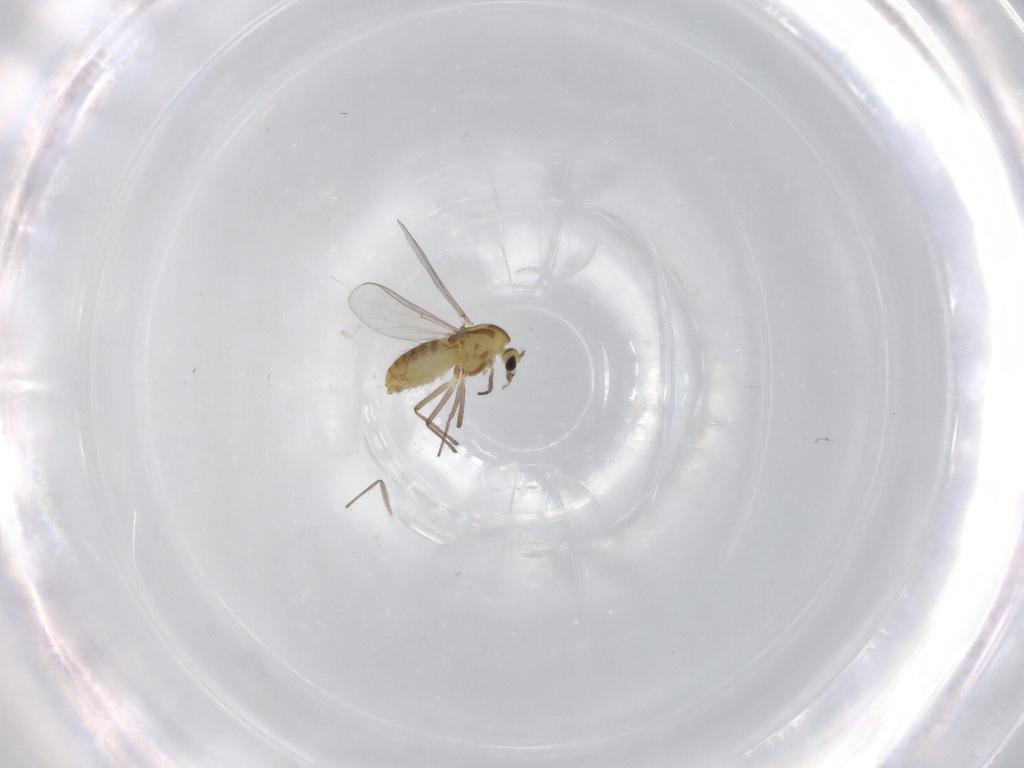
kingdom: Animalia
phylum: Arthropoda
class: Insecta
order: Diptera
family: Chironomidae
